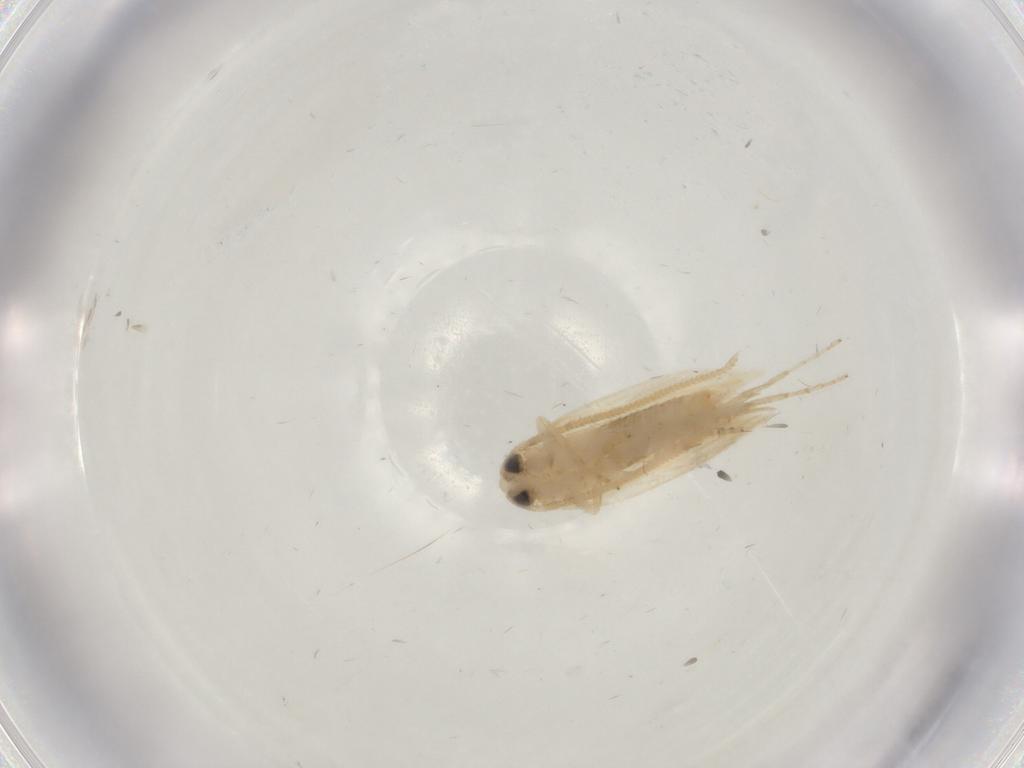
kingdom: Animalia
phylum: Arthropoda
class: Insecta
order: Lepidoptera
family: Opostegidae
